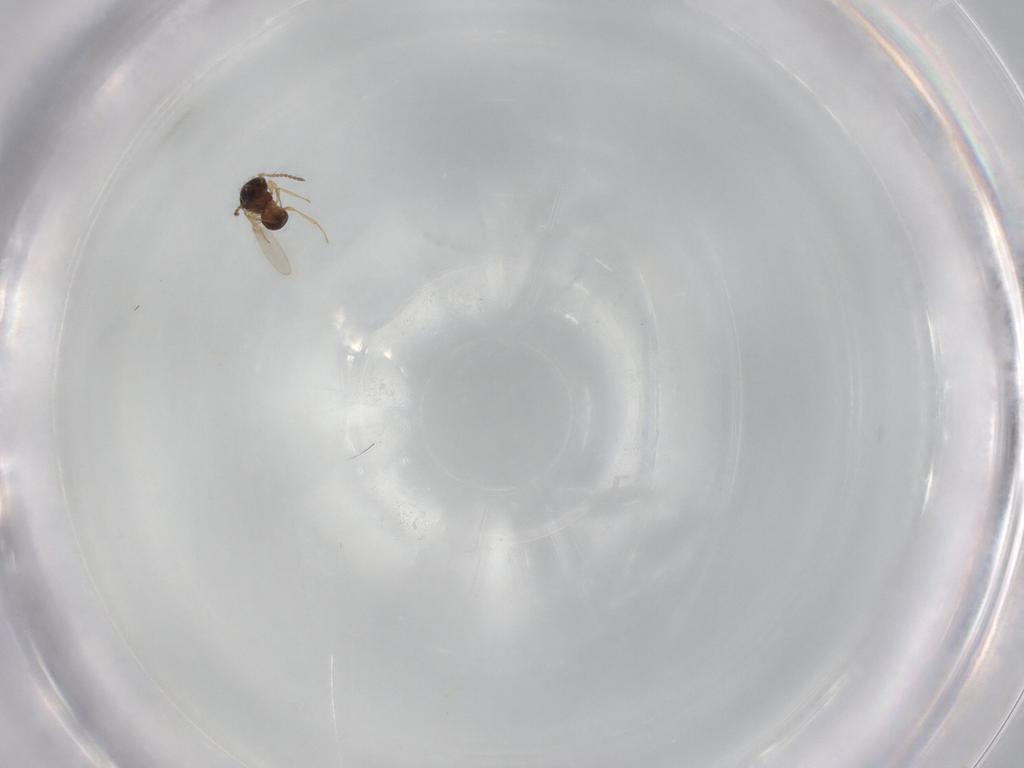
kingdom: Animalia
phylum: Arthropoda
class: Insecta
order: Hymenoptera
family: Scelionidae
